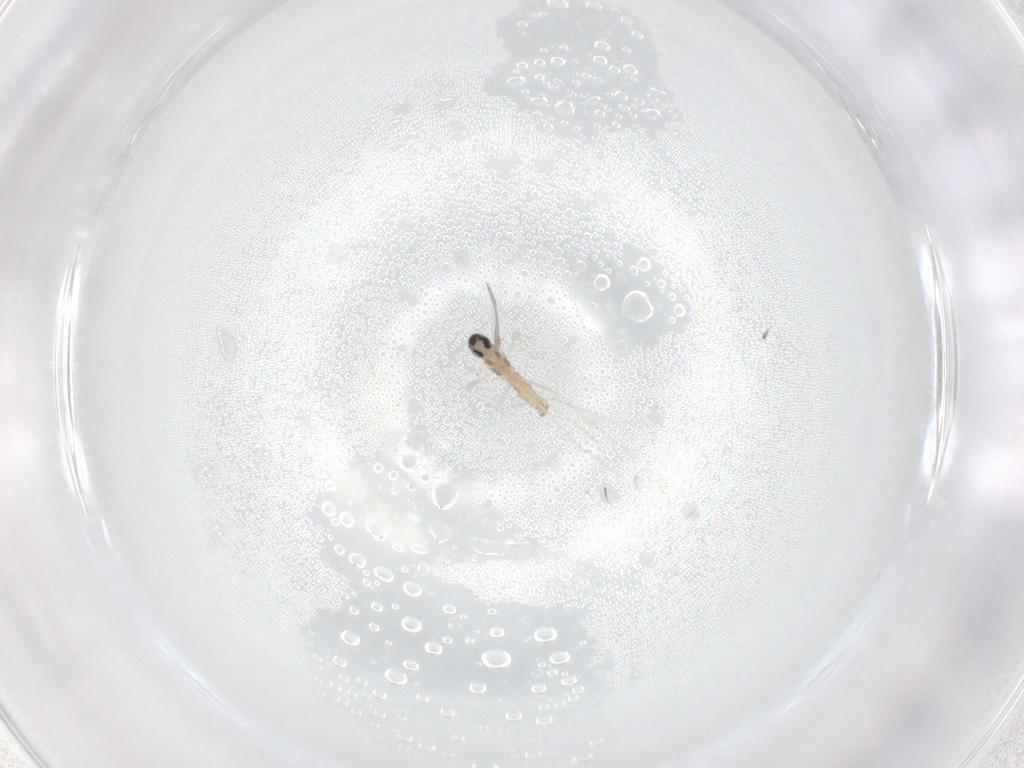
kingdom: Animalia
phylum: Arthropoda
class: Insecta
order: Diptera
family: Cecidomyiidae
